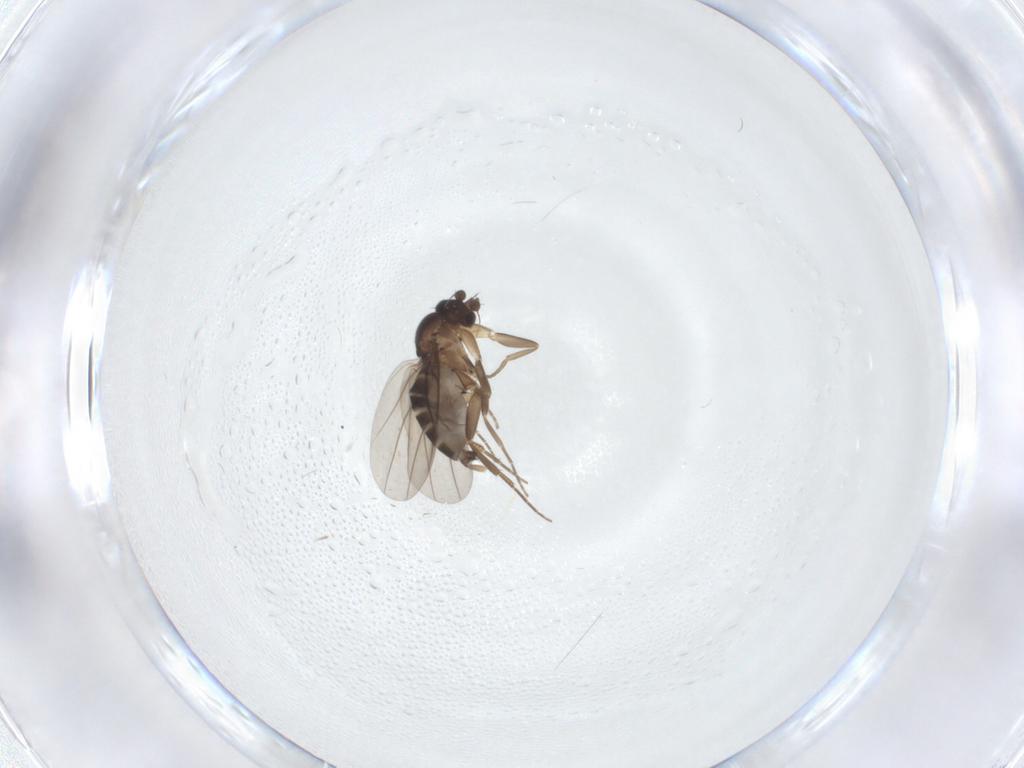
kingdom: Animalia
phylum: Arthropoda
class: Insecta
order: Diptera
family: Phoridae
